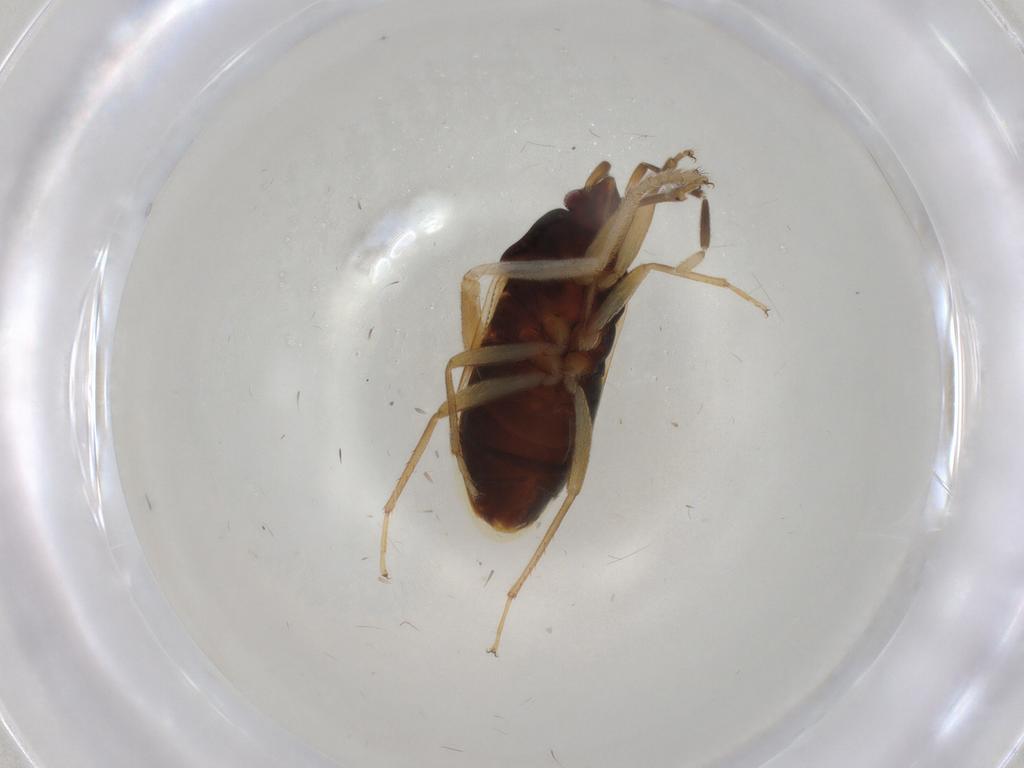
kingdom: Animalia
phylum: Arthropoda
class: Insecta
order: Hemiptera
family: Rhyparochromidae
